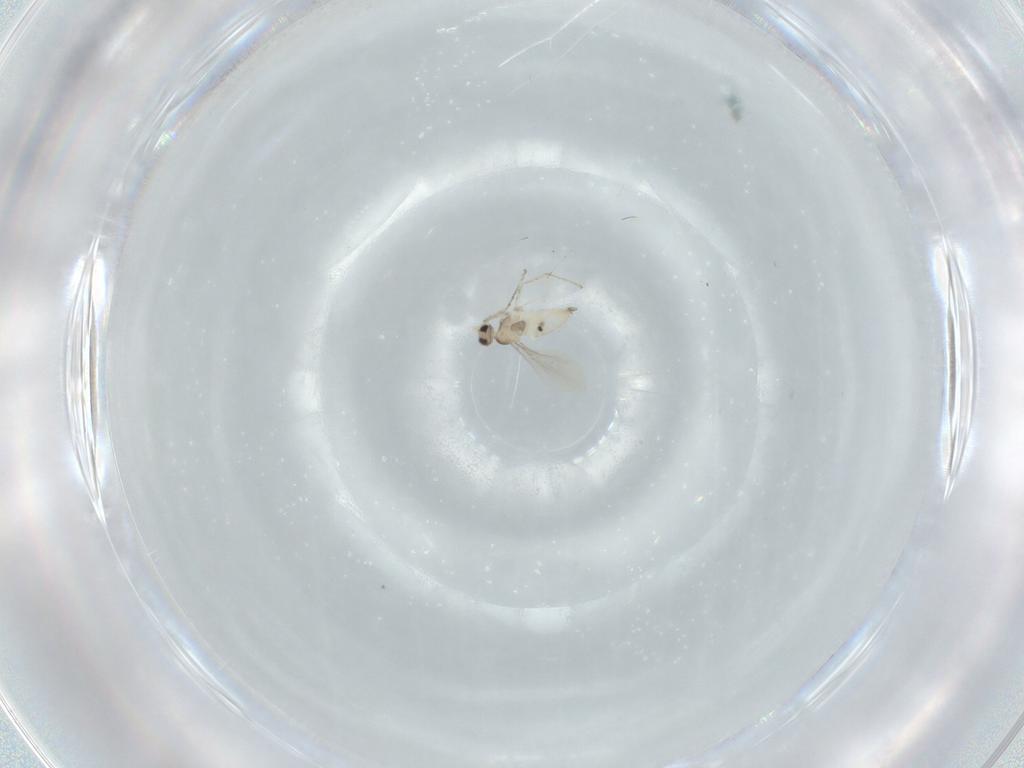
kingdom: Animalia
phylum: Arthropoda
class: Insecta
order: Diptera
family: Cecidomyiidae
